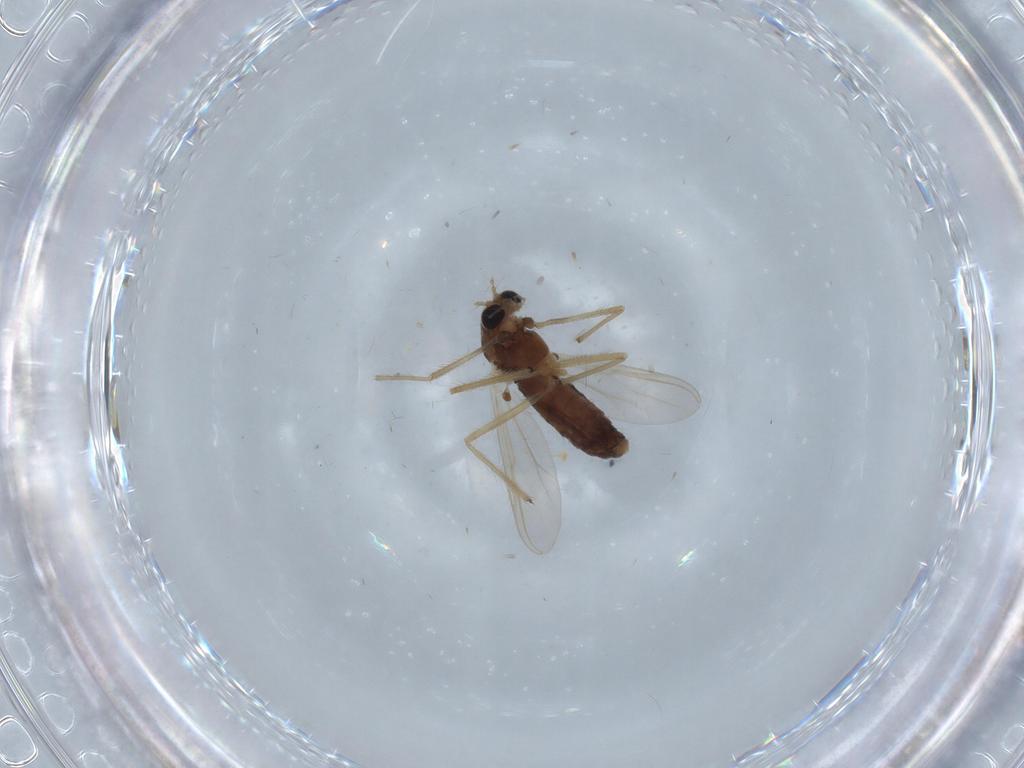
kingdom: Animalia
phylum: Arthropoda
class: Insecta
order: Diptera
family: Chironomidae
